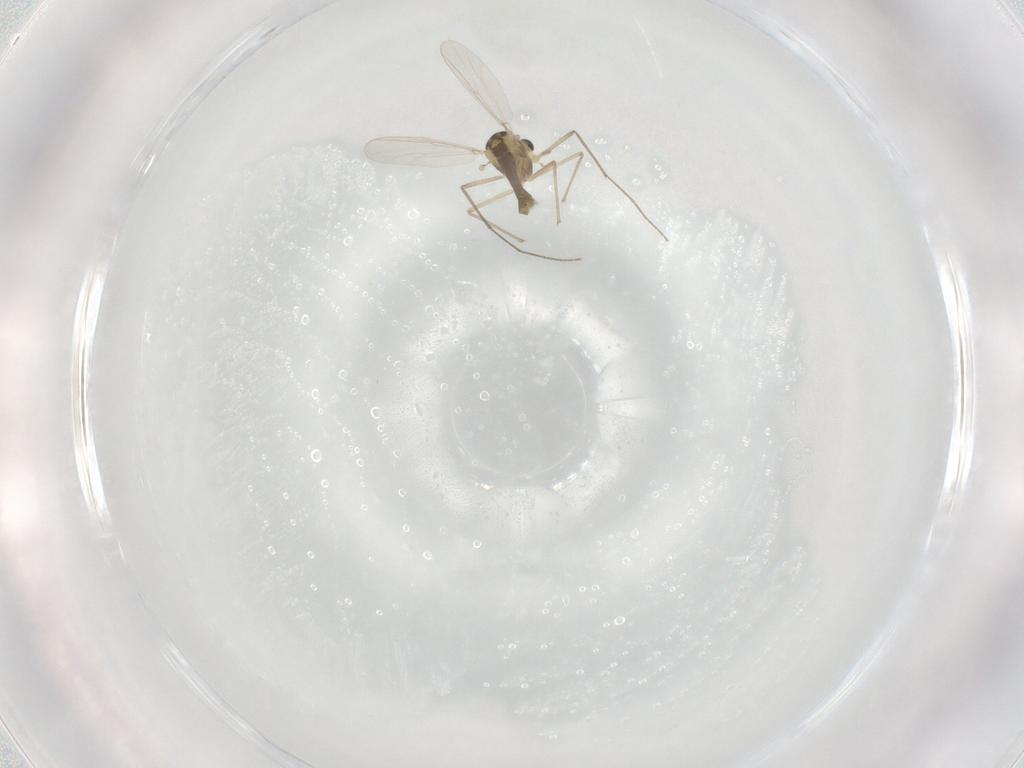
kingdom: Animalia
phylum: Arthropoda
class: Insecta
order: Diptera
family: Chironomidae
